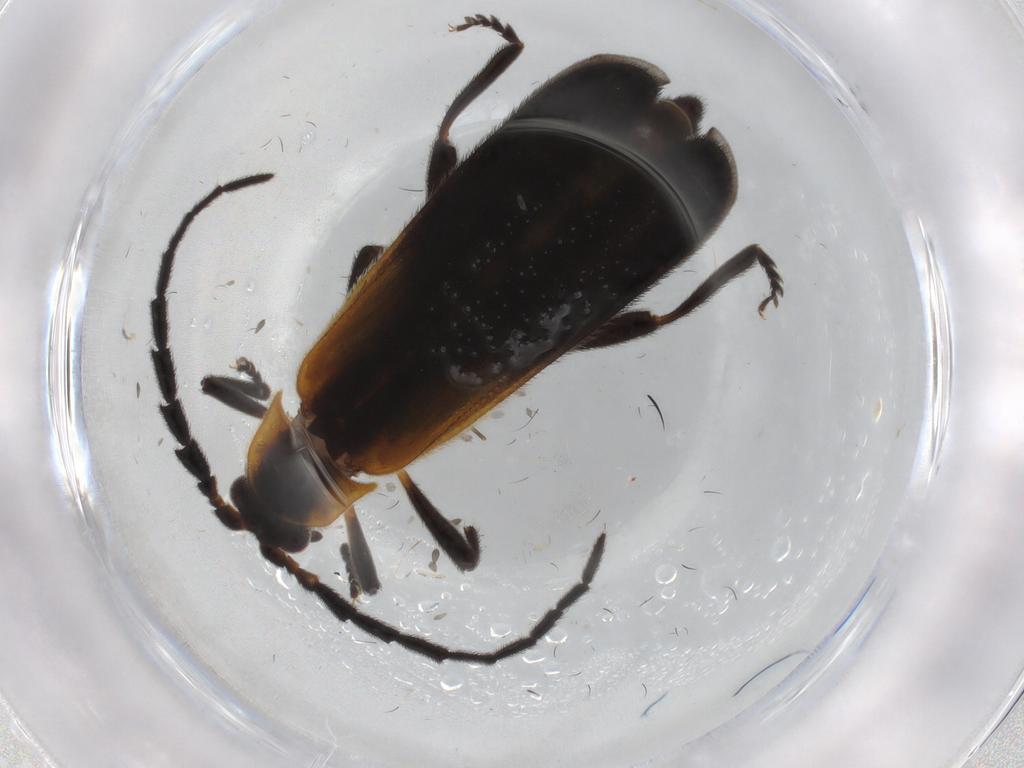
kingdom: Animalia
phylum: Arthropoda
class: Insecta
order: Coleoptera
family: Lycidae
